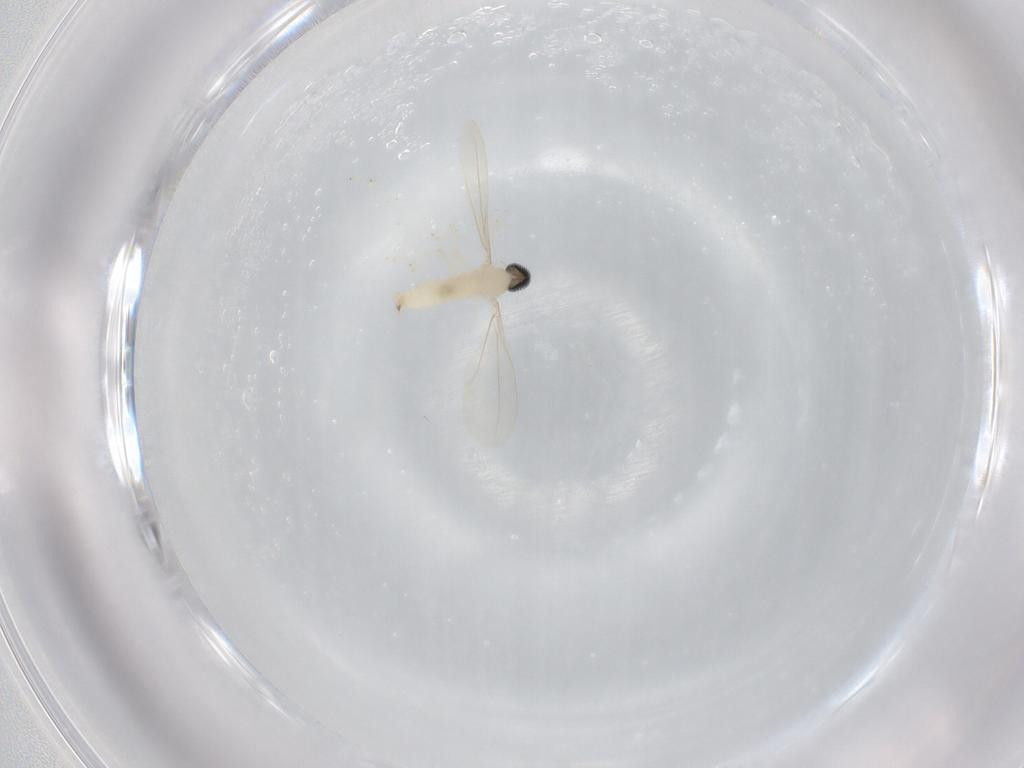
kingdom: Animalia
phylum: Arthropoda
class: Insecta
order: Diptera
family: Cecidomyiidae
